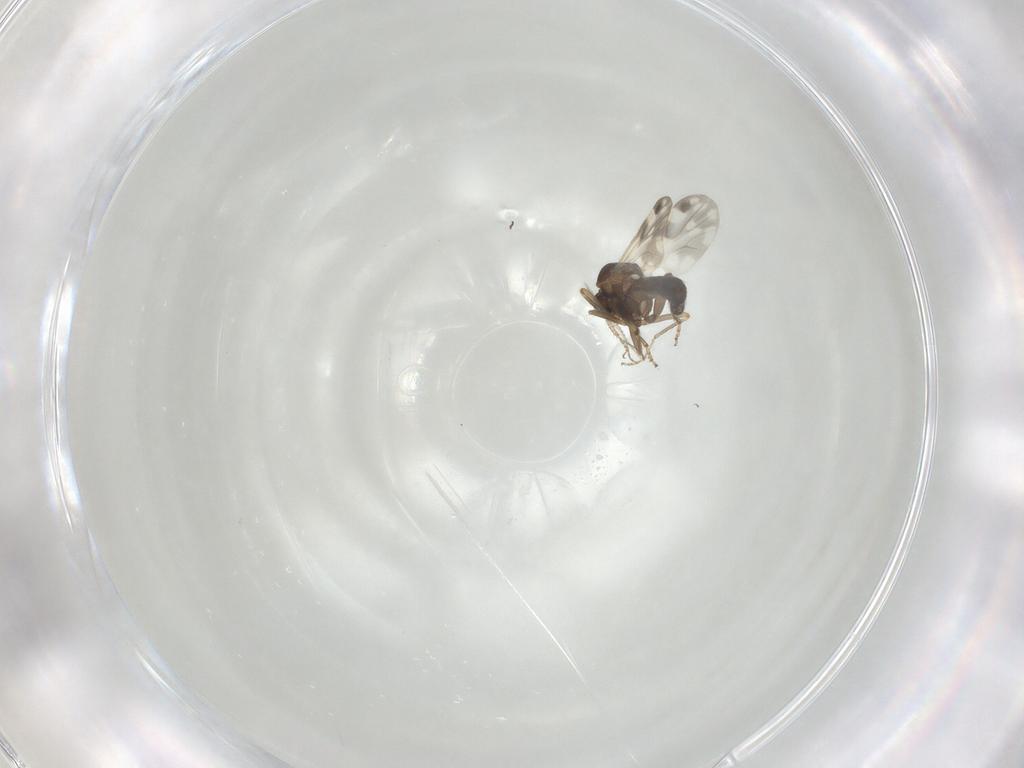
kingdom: Animalia
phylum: Arthropoda
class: Insecta
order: Diptera
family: Ceratopogonidae
